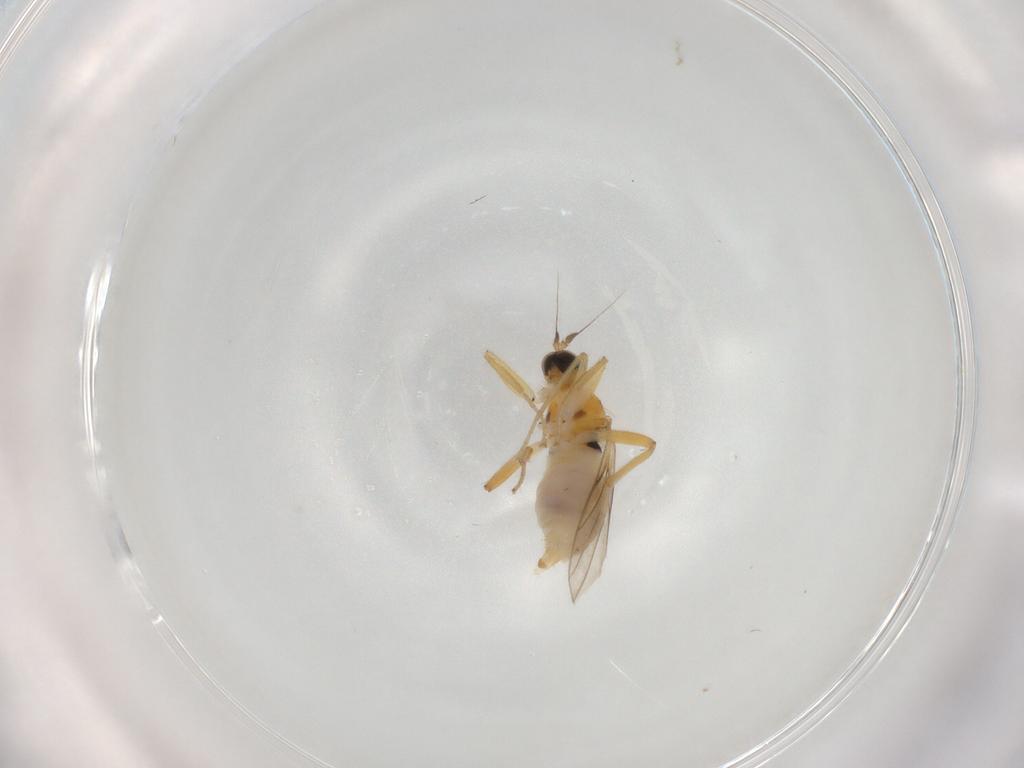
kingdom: Animalia
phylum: Arthropoda
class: Insecta
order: Diptera
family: Psychodidae
